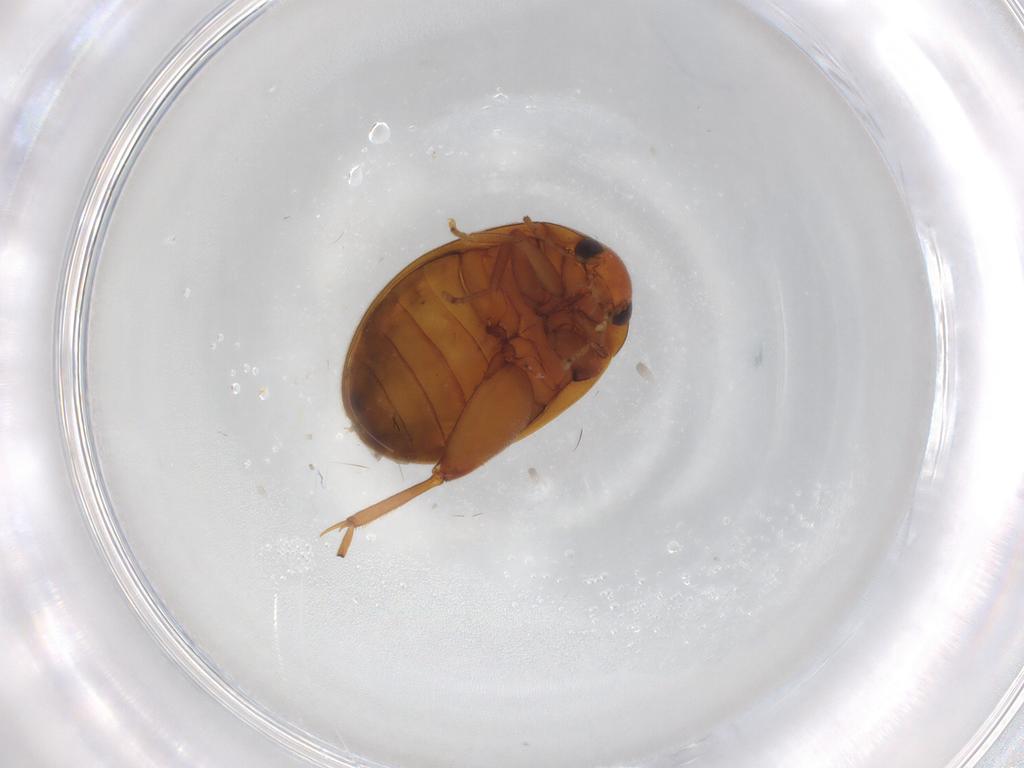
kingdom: Animalia
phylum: Arthropoda
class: Insecta
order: Coleoptera
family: Scirtidae
